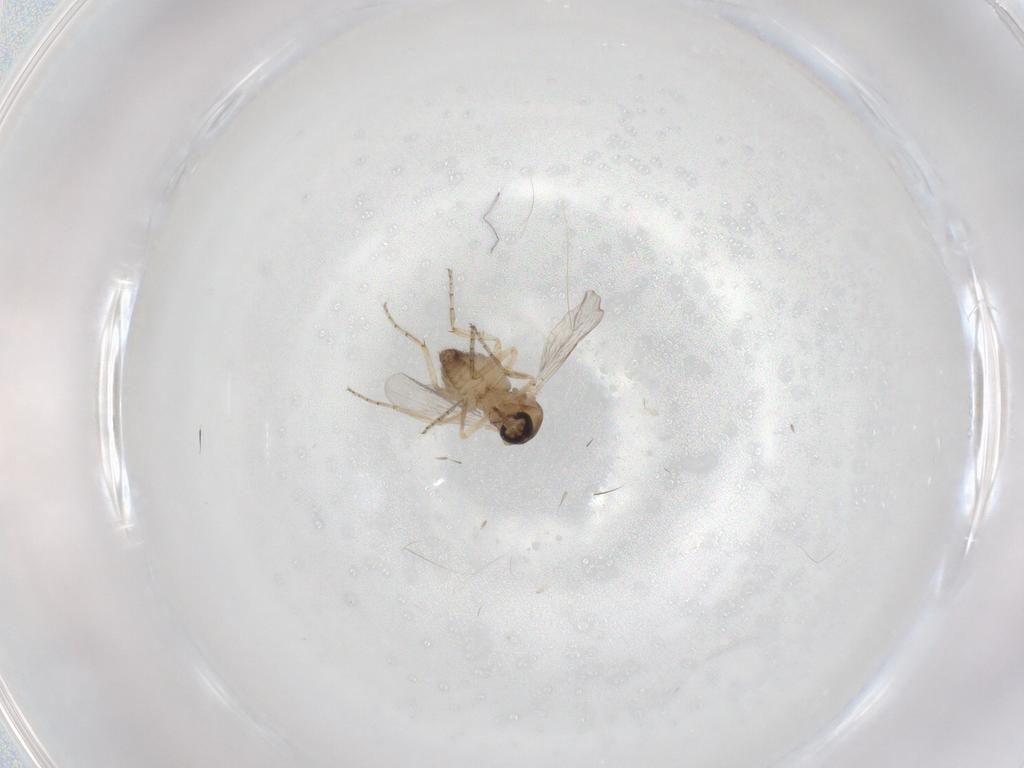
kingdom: Animalia
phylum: Arthropoda
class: Insecta
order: Diptera
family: Ceratopogonidae
